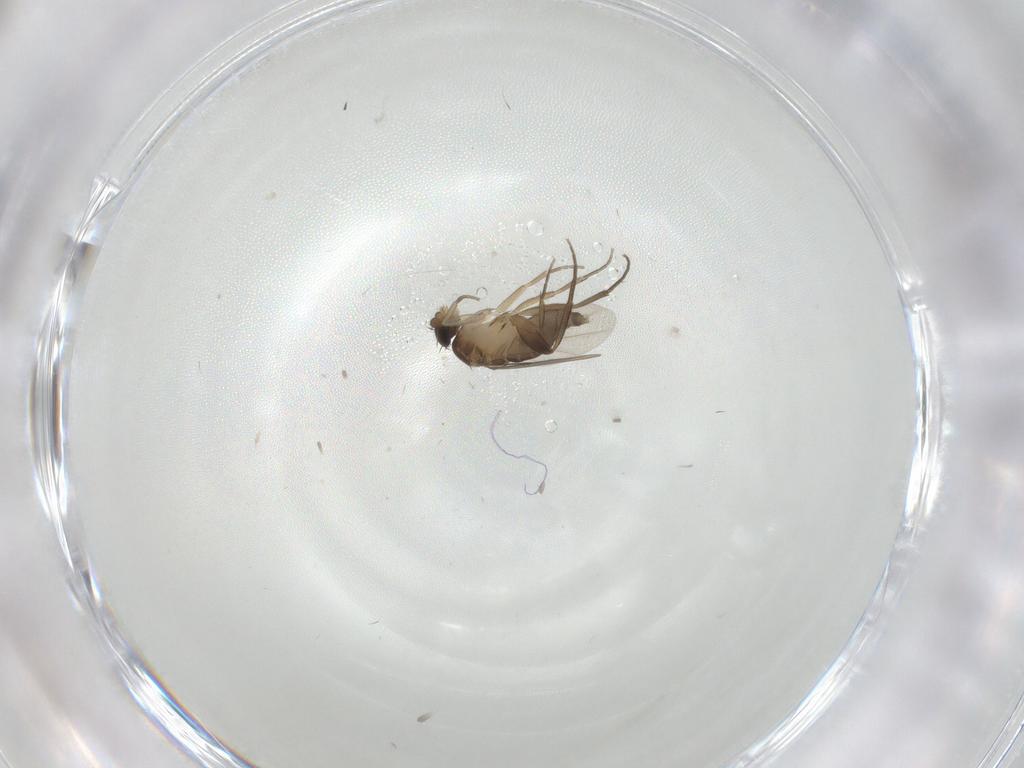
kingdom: Animalia
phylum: Arthropoda
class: Insecta
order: Diptera
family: Phoridae
